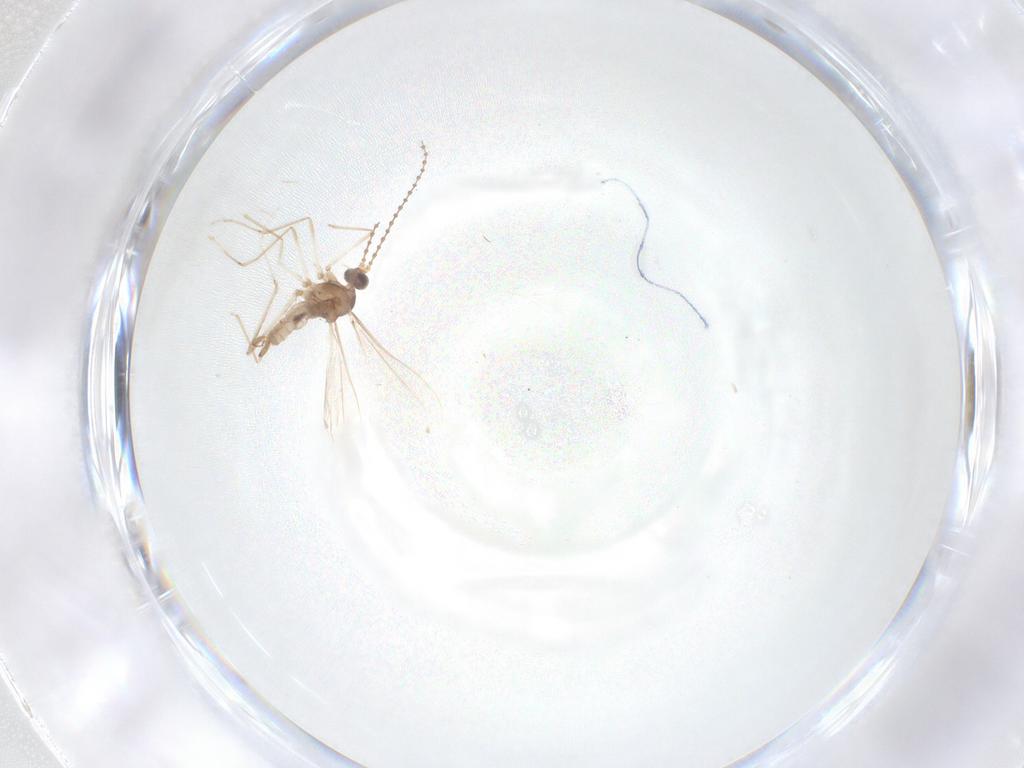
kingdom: Animalia
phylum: Arthropoda
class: Insecta
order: Diptera
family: Cecidomyiidae
